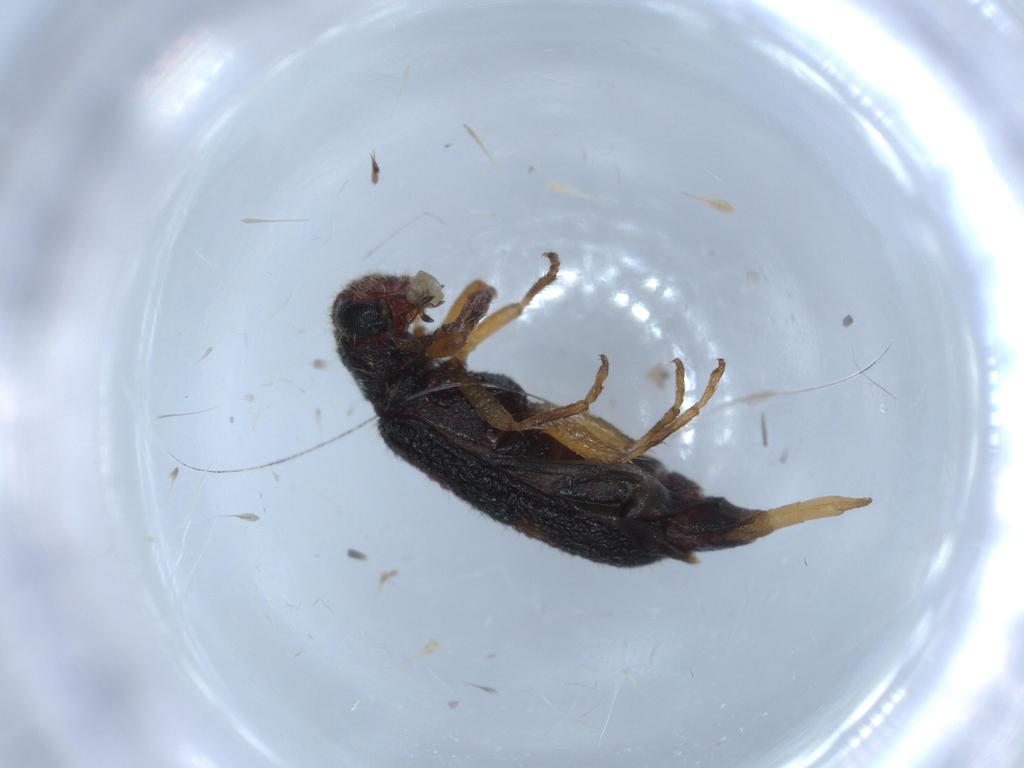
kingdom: Animalia
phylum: Arthropoda
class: Insecta
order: Coleoptera
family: Cleridae
